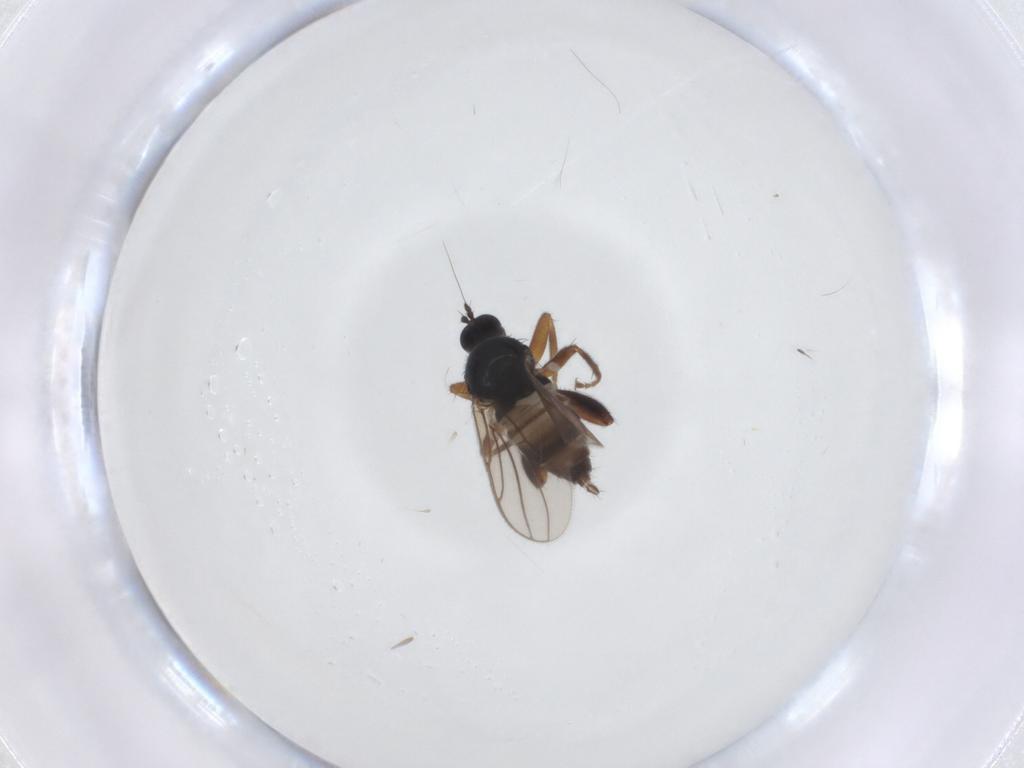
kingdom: Animalia
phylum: Arthropoda
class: Insecta
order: Diptera
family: Hybotidae
